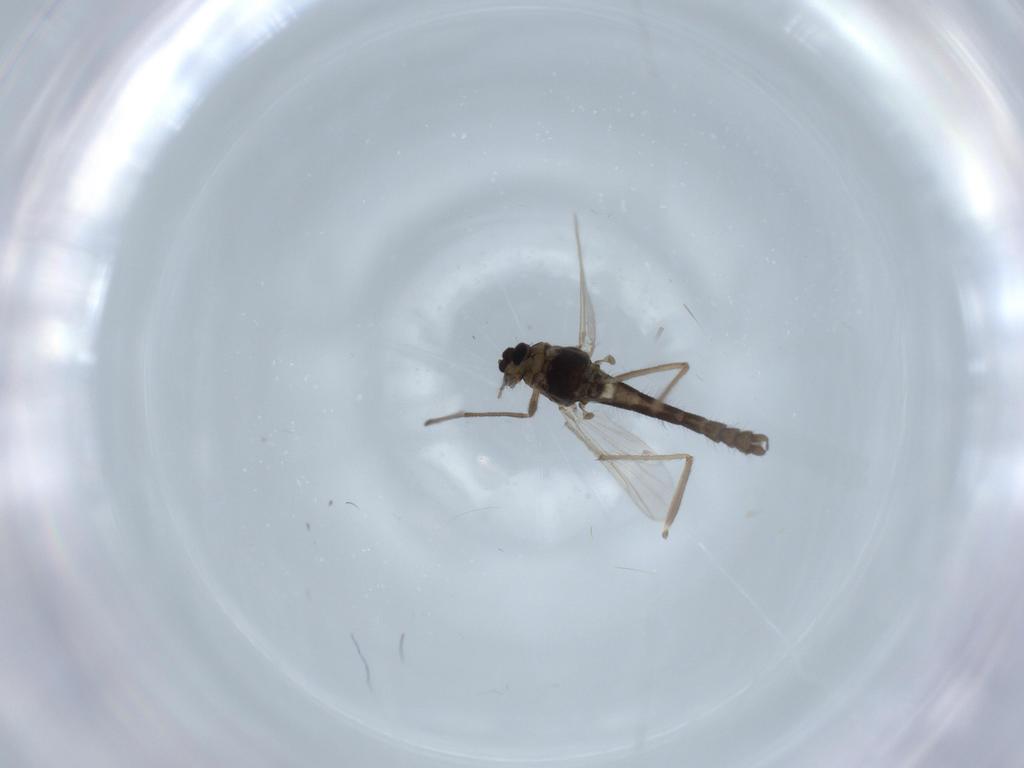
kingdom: Animalia
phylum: Arthropoda
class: Insecta
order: Diptera
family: Chironomidae
